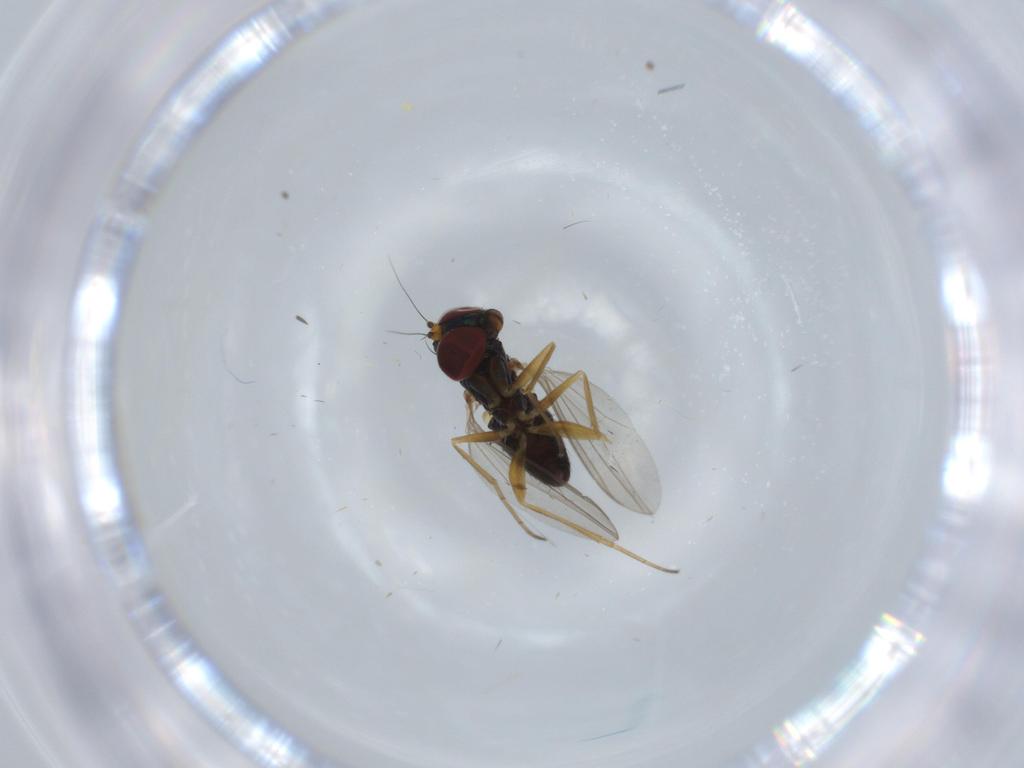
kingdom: Animalia
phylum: Arthropoda
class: Insecta
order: Diptera
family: Dolichopodidae
